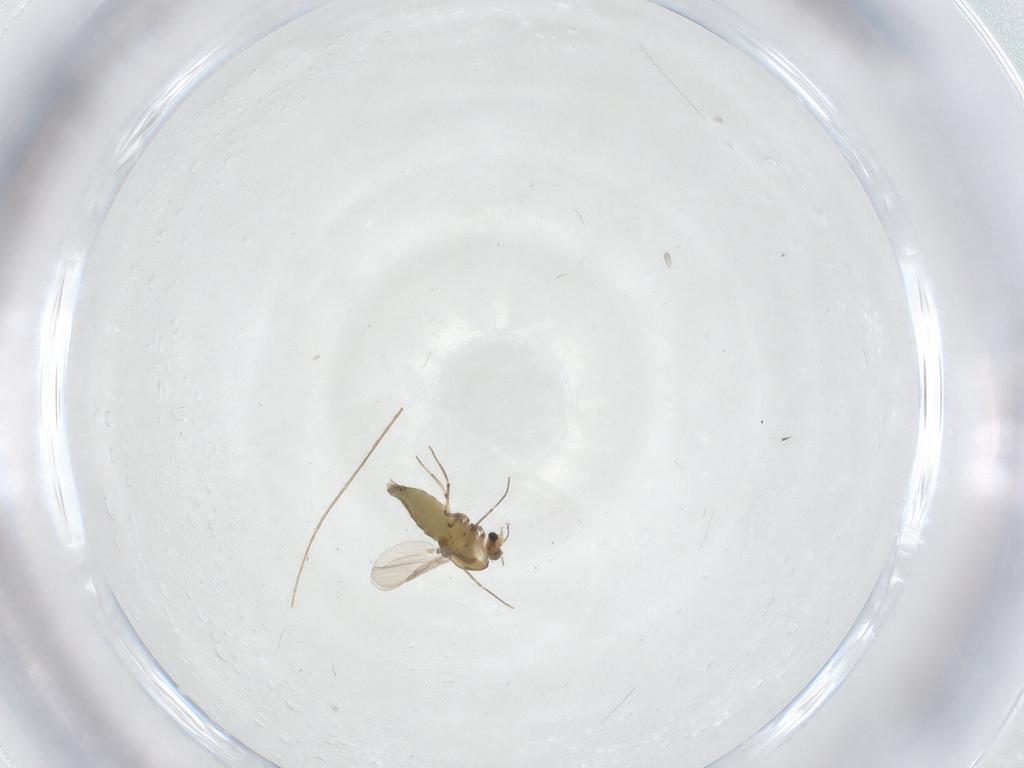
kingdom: Animalia
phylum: Arthropoda
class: Insecta
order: Diptera
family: Chironomidae
